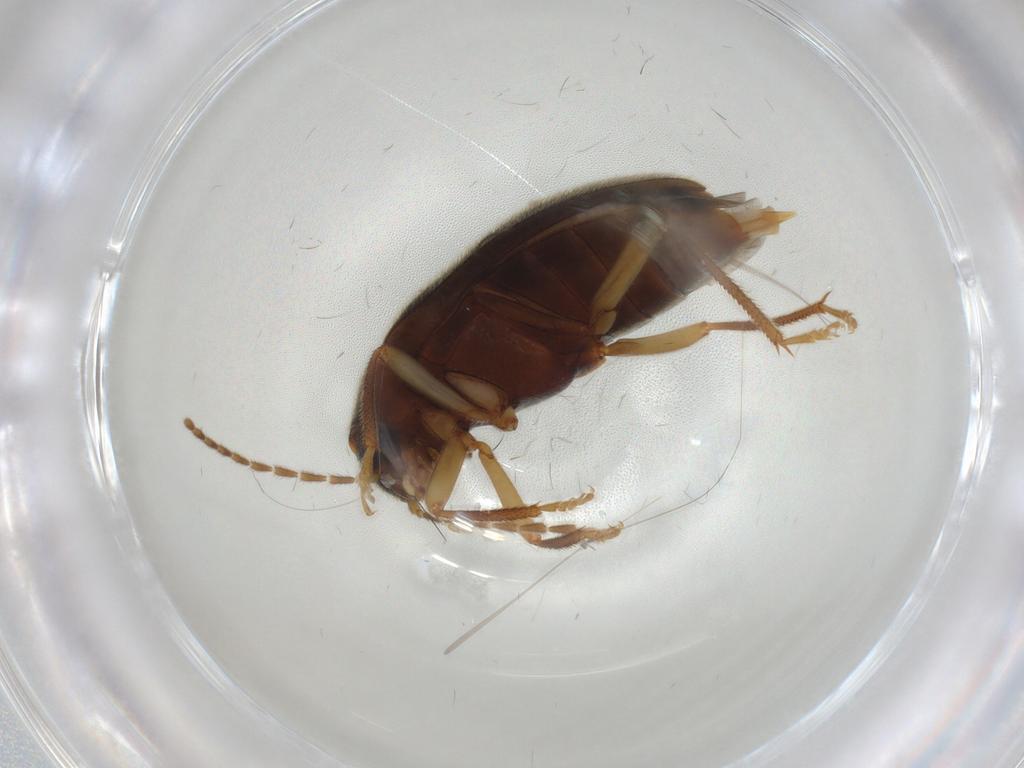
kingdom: Animalia
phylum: Arthropoda
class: Insecta
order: Coleoptera
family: Ptilodactylidae
